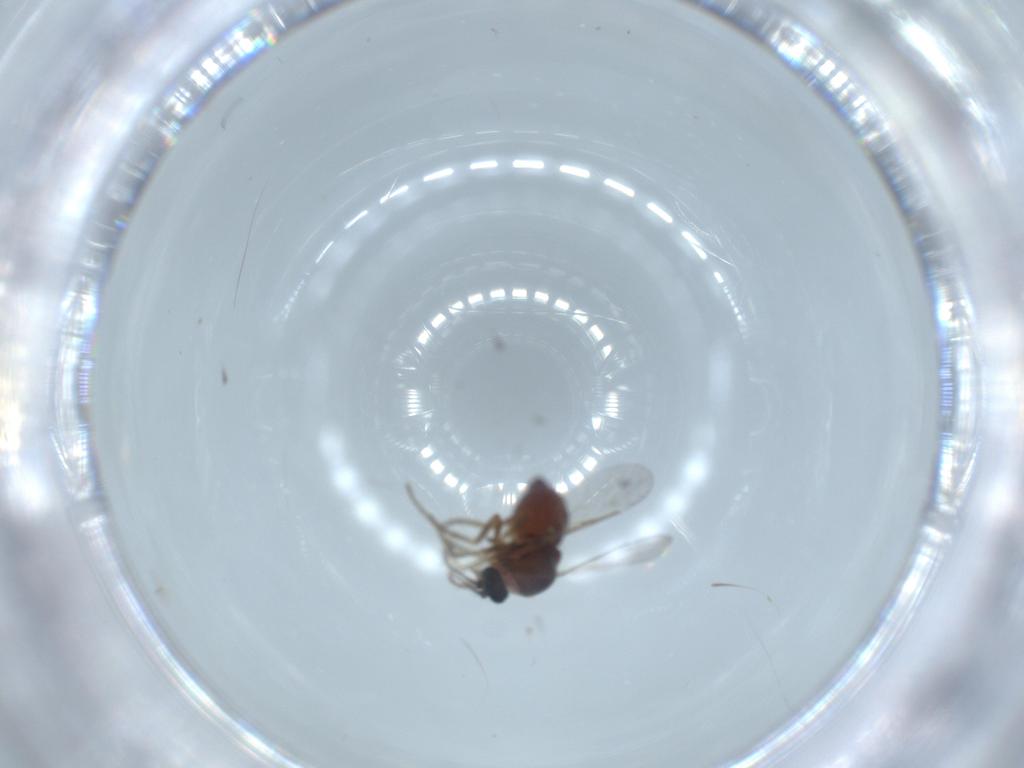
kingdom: Animalia
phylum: Arthropoda
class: Insecta
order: Diptera
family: Ceratopogonidae
